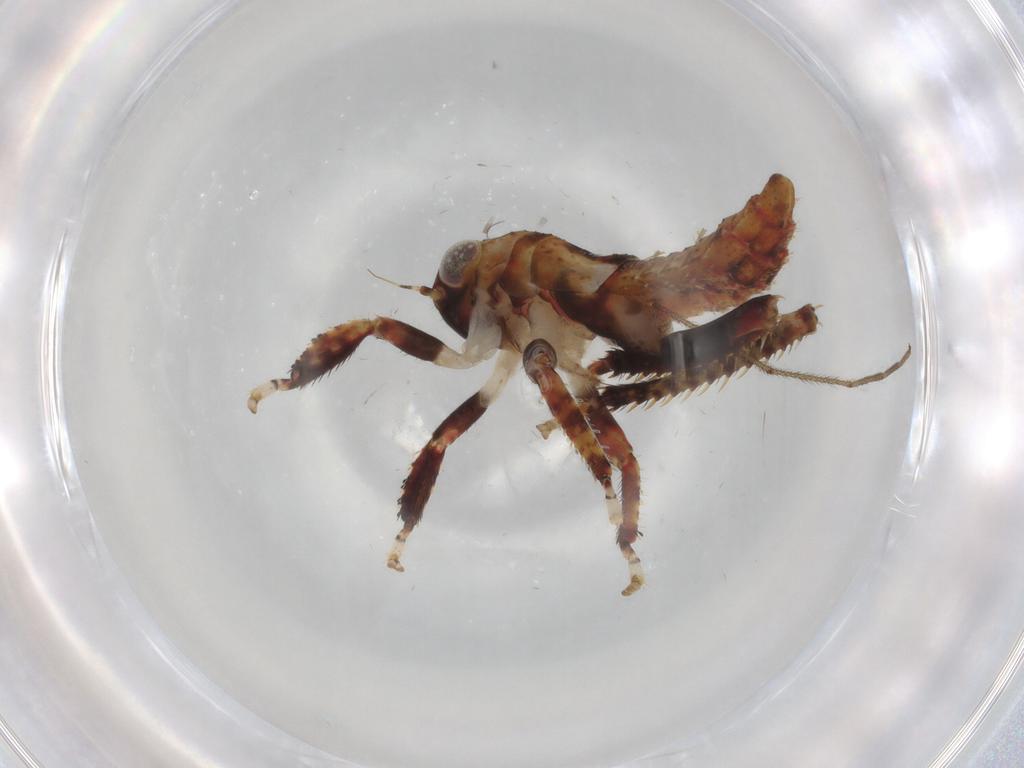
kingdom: Animalia
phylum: Arthropoda
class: Insecta
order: Hemiptera
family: Cicadellidae
